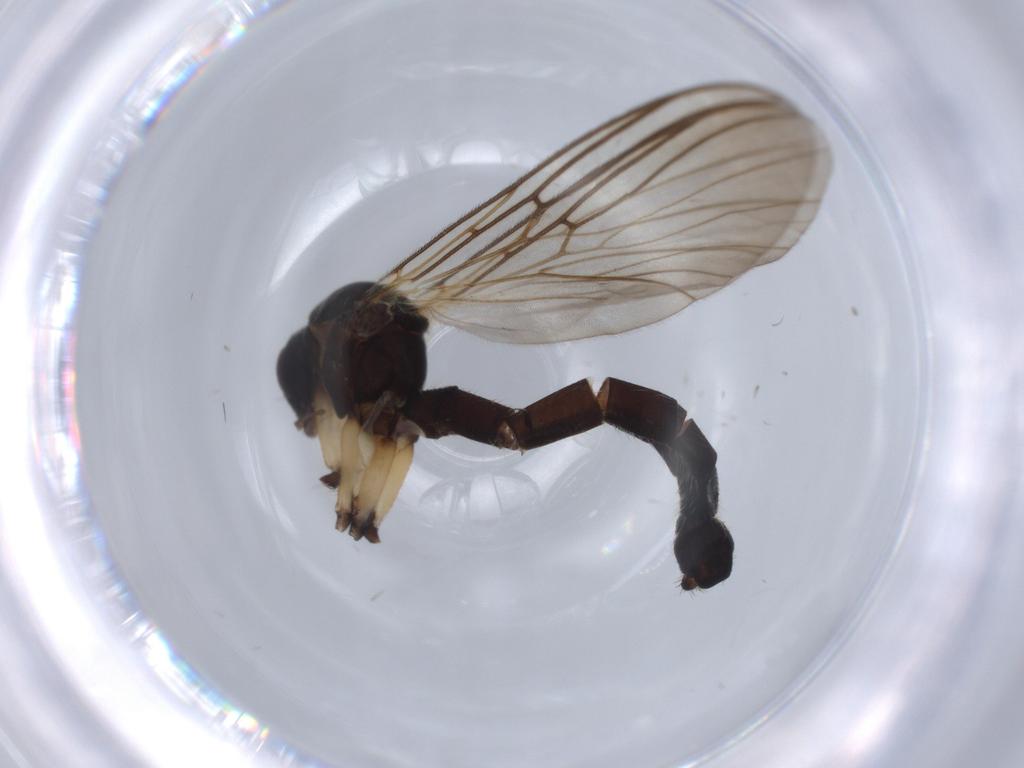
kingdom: Animalia
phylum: Arthropoda
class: Insecta
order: Diptera
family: Mycetophilidae
